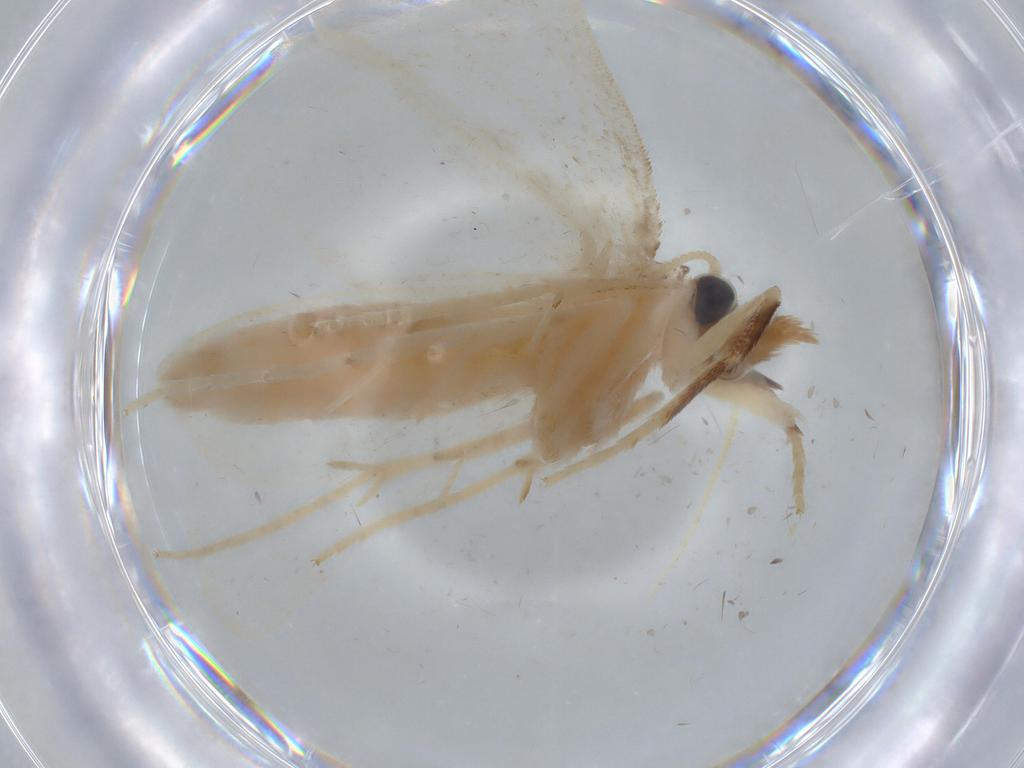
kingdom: Animalia
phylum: Arthropoda
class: Insecta
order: Lepidoptera
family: Crambidae
